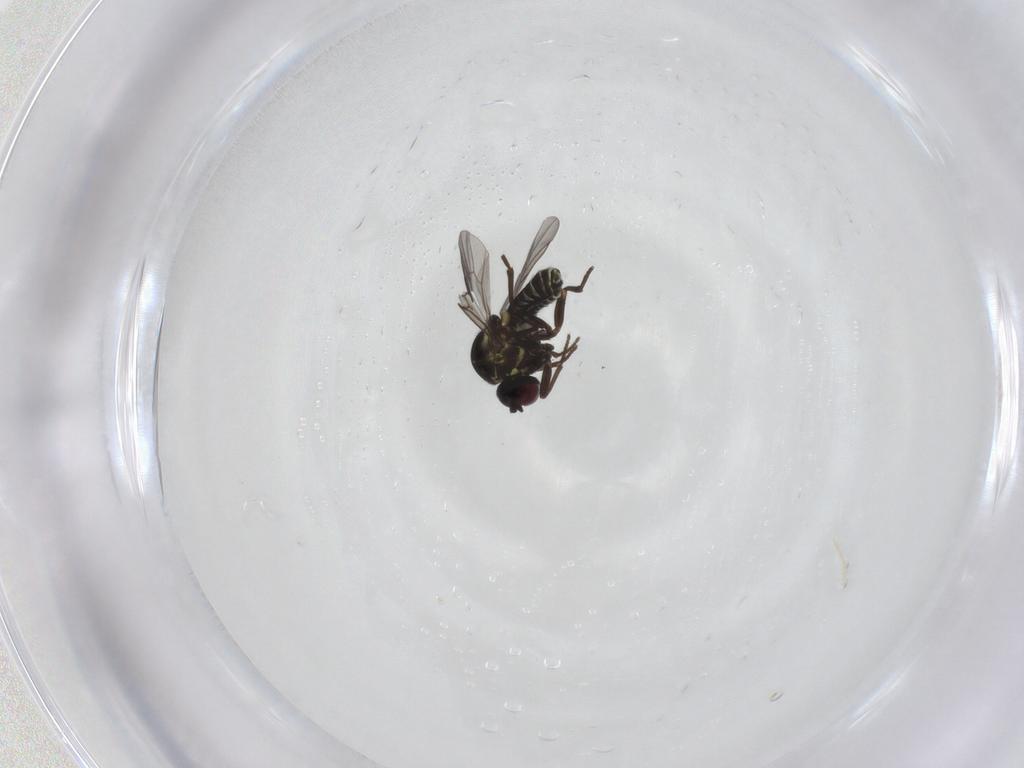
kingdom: Animalia
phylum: Arthropoda
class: Insecta
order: Diptera
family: Mythicomyiidae
